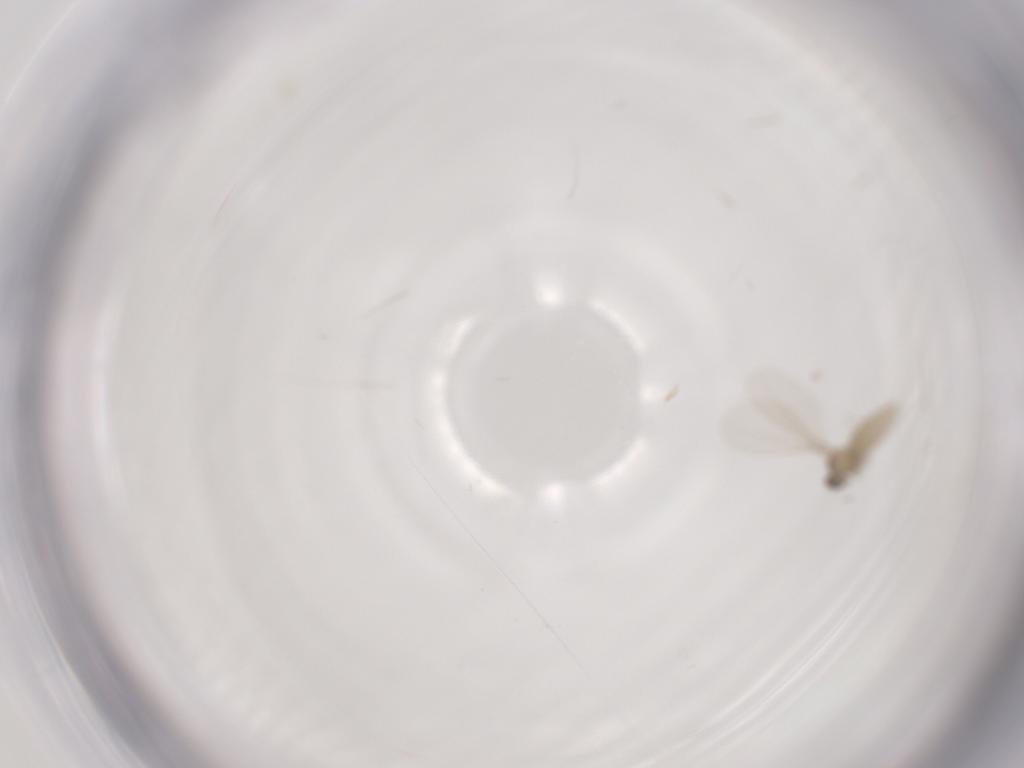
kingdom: Animalia
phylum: Arthropoda
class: Insecta
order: Diptera
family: Cecidomyiidae
